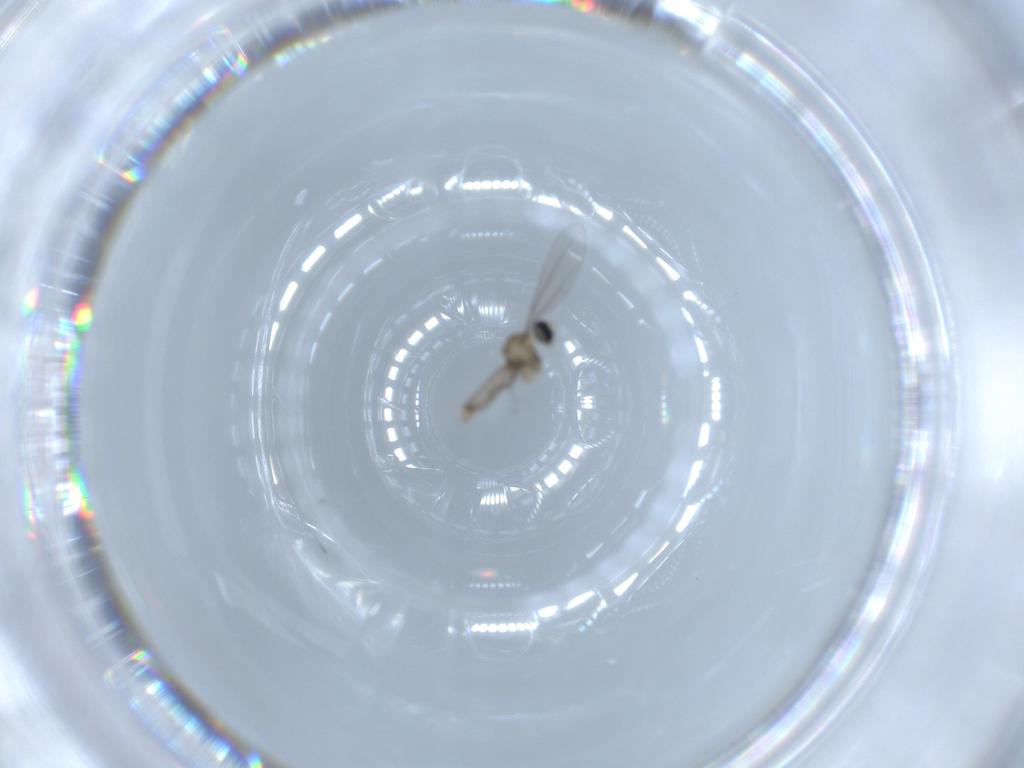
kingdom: Animalia
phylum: Arthropoda
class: Insecta
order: Diptera
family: Cecidomyiidae
